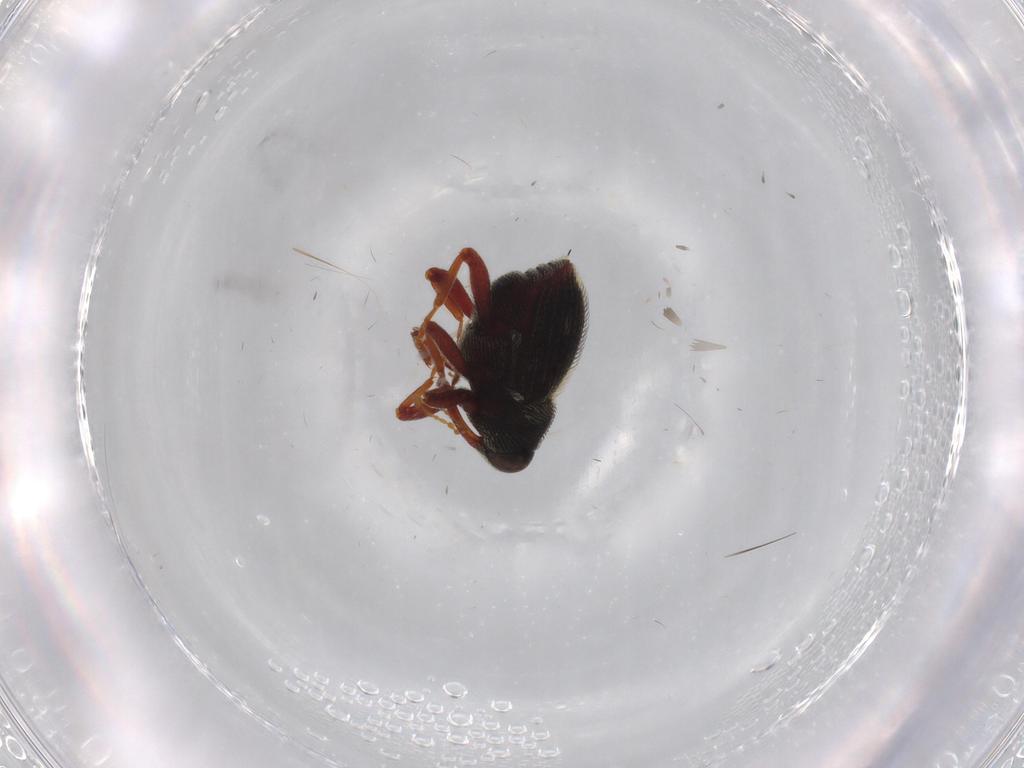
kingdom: Animalia
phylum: Arthropoda
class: Insecta
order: Coleoptera
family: Curculionidae
